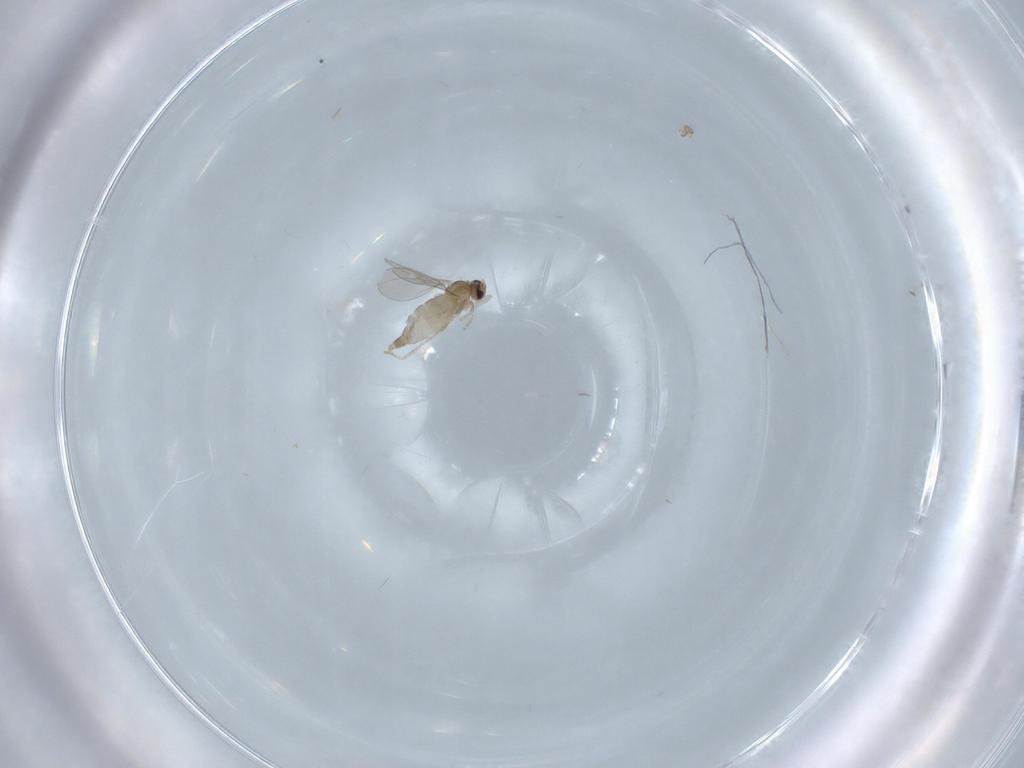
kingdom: Animalia
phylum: Arthropoda
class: Insecta
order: Diptera
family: Cecidomyiidae
